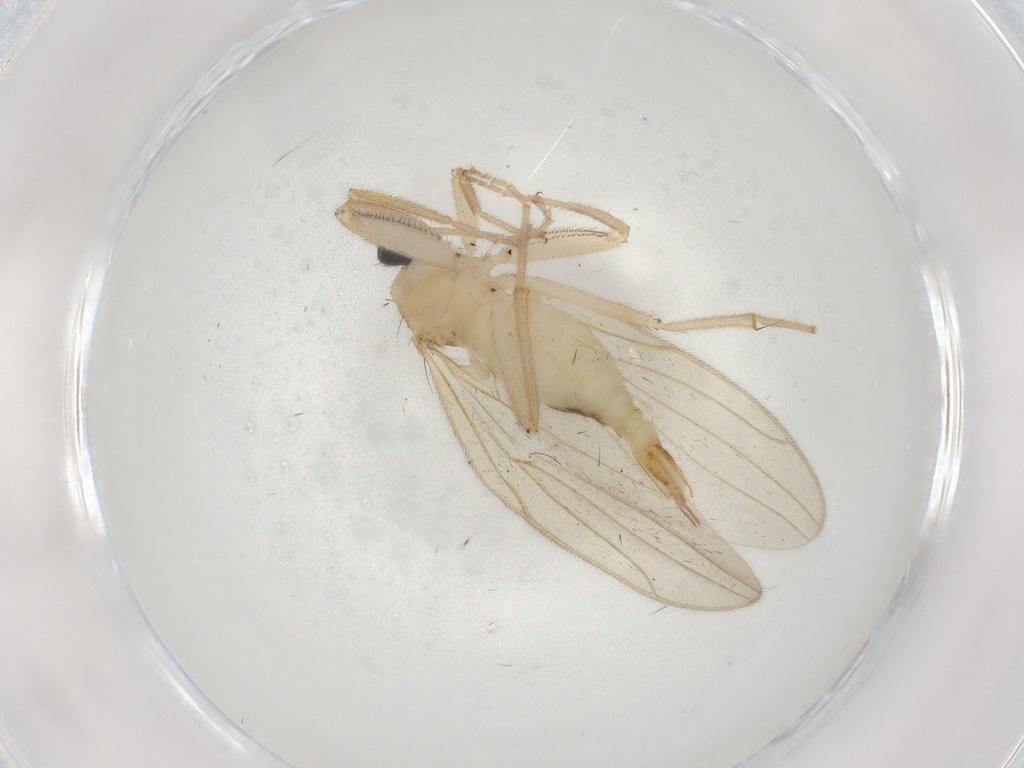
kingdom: Animalia
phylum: Arthropoda
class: Insecta
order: Diptera
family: Hybotidae
